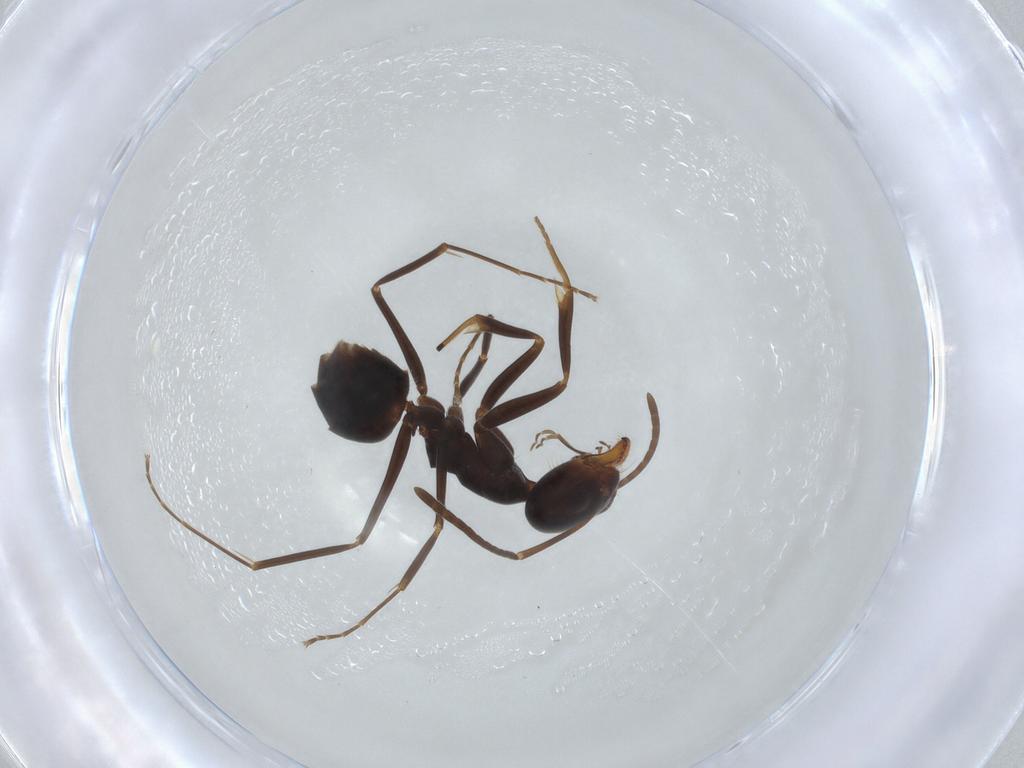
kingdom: Animalia
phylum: Arthropoda
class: Insecta
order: Hymenoptera
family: Formicidae
